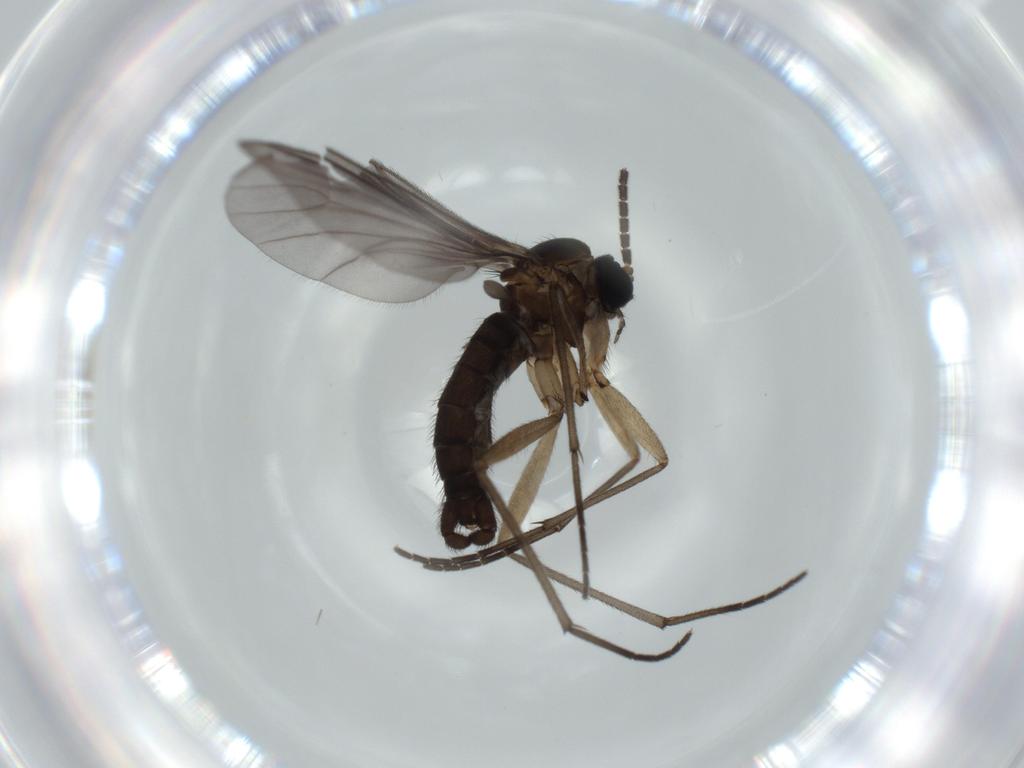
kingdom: Animalia
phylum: Arthropoda
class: Insecta
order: Diptera
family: Sciaridae
